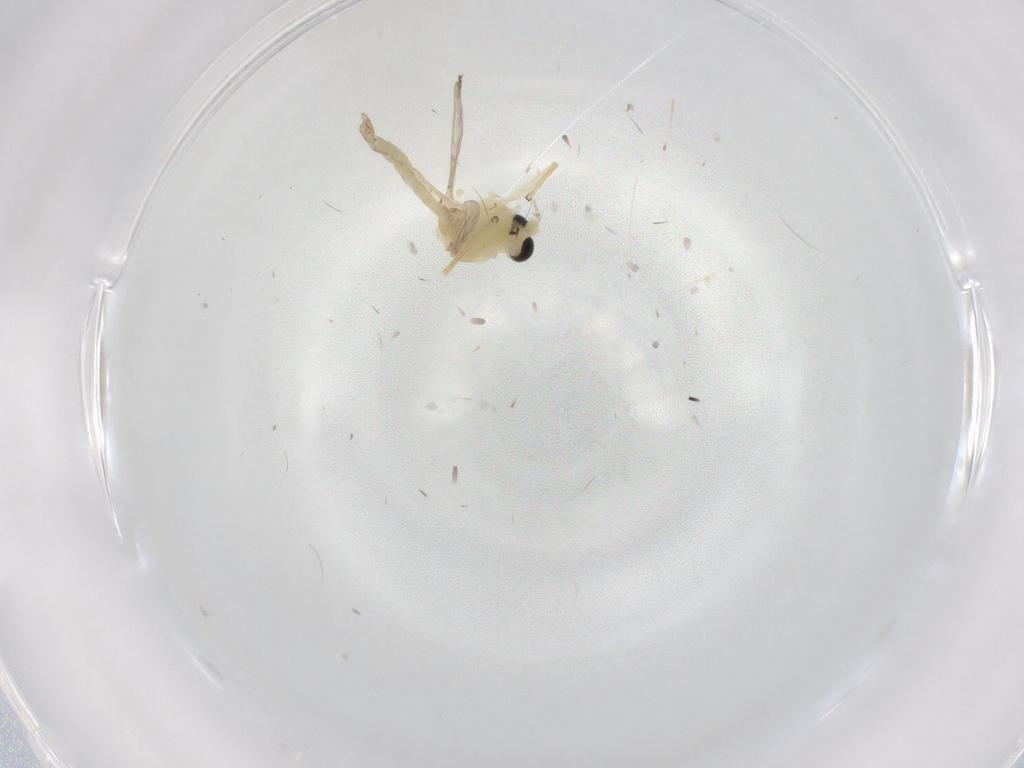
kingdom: Animalia
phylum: Arthropoda
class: Insecta
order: Diptera
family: Chironomidae
